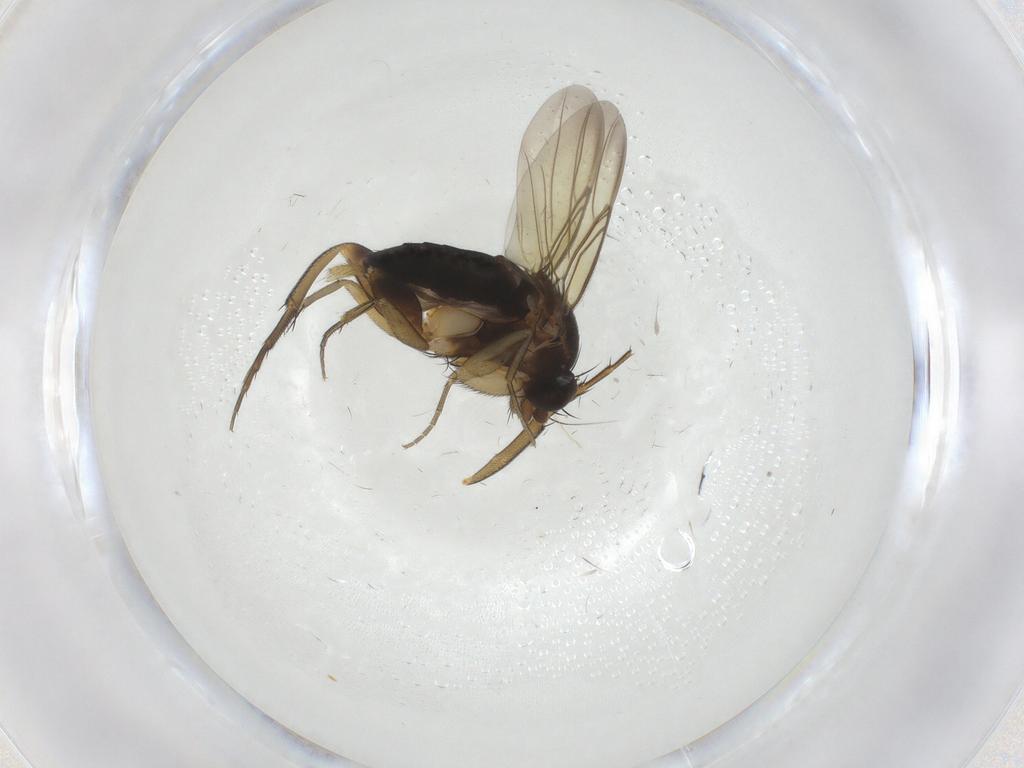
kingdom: Animalia
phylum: Arthropoda
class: Insecta
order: Diptera
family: Phoridae
